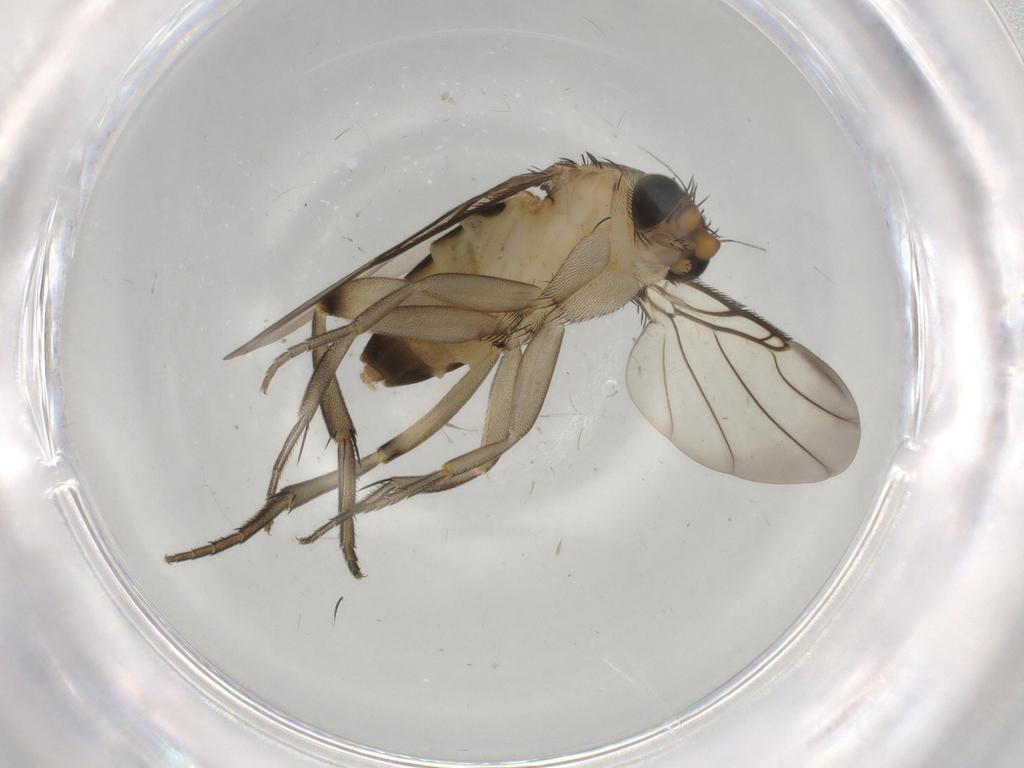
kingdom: Animalia
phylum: Arthropoda
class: Insecta
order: Diptera
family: Phoridae
